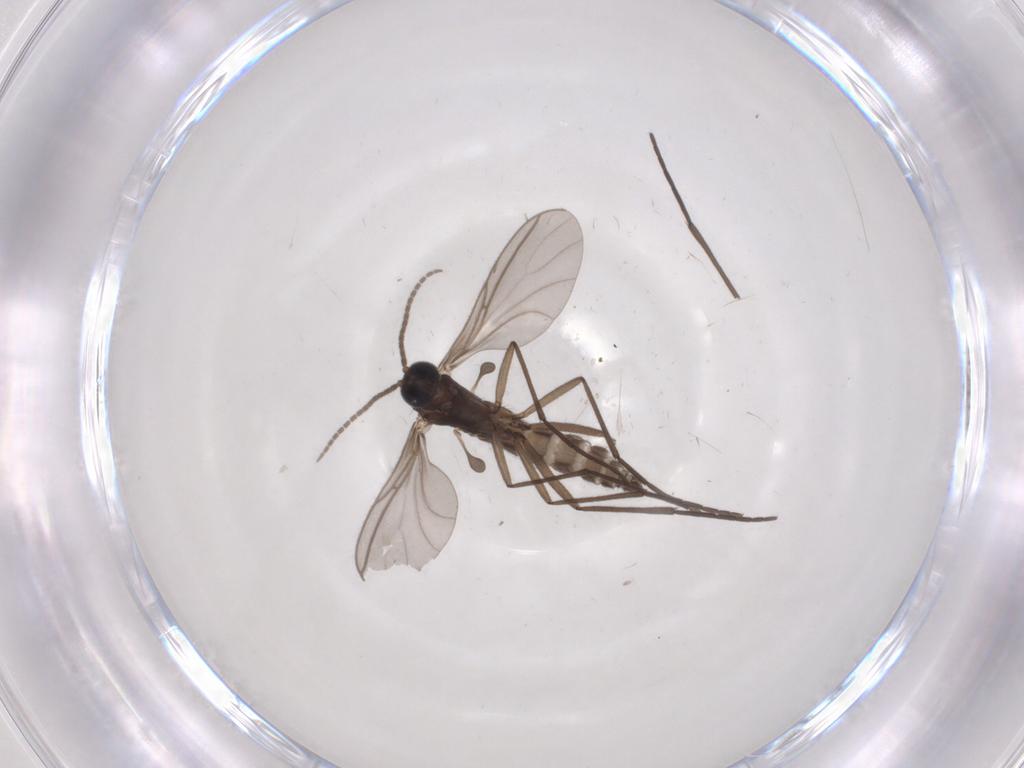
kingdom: Animalia
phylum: Arthropoda
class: Insecta
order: Diptera
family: Sciaridae
